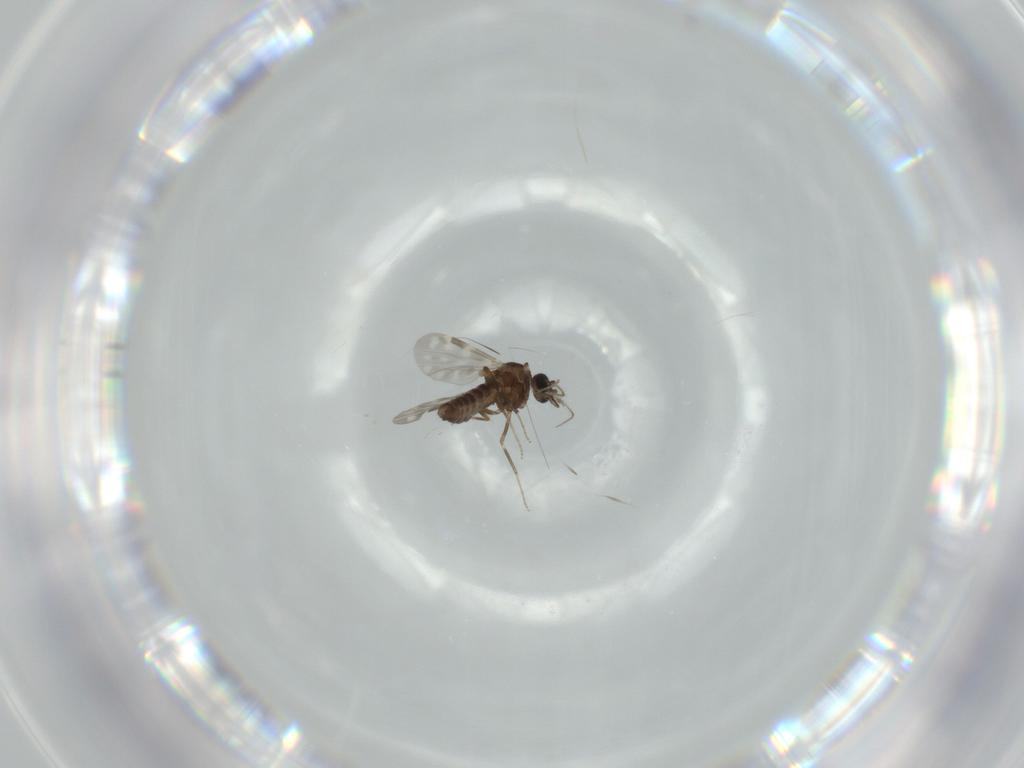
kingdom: Animalia
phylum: Arthropoda
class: Insecta
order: Diptera
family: Ceratopogonidae
